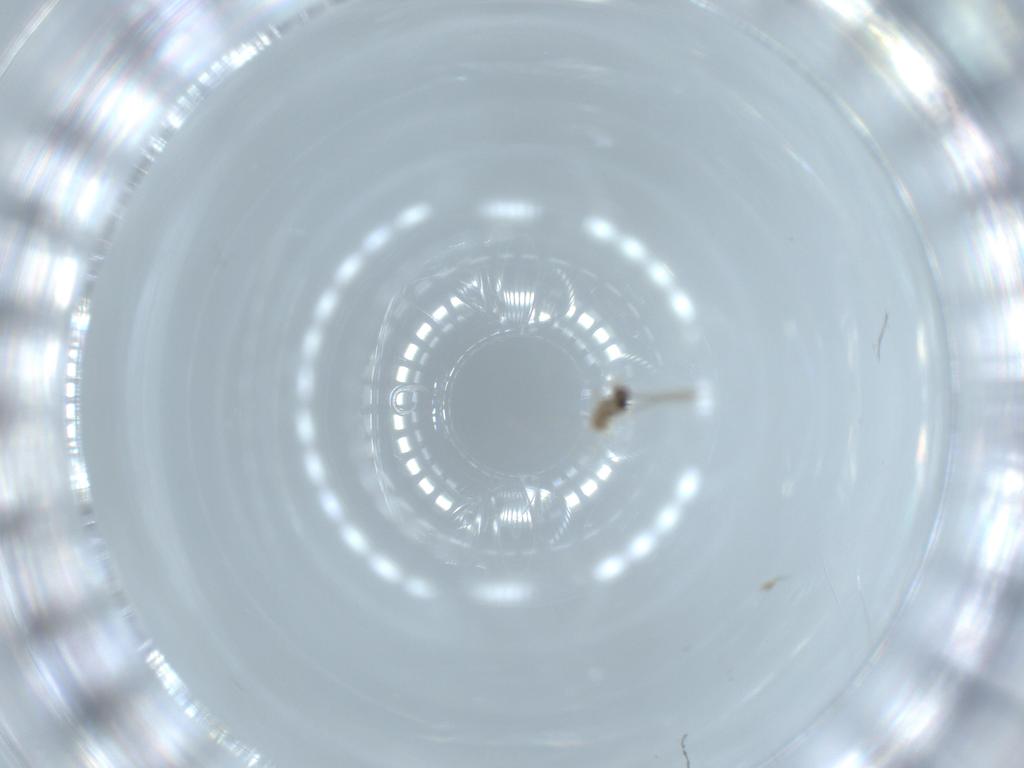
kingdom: Animalia
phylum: Arthropoda
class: Insecta
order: Diptera
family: Cecidomyiidae
